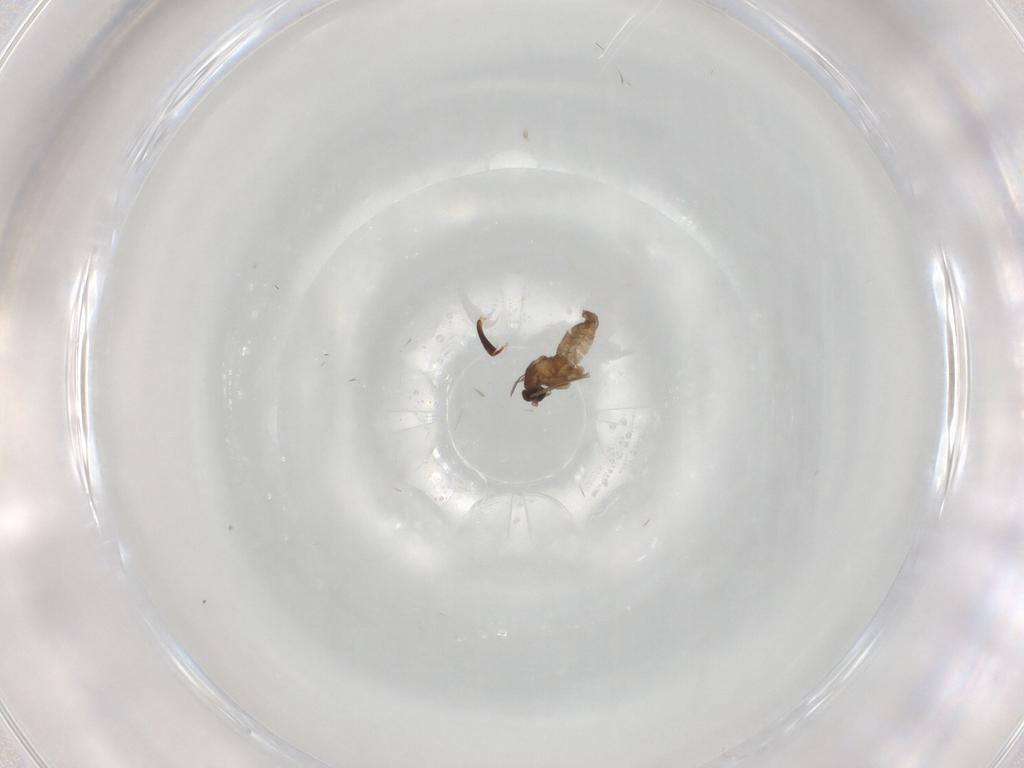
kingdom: Animalia
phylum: Arthropoda
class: Insecta
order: Diptera
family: Cecidomyiidae
